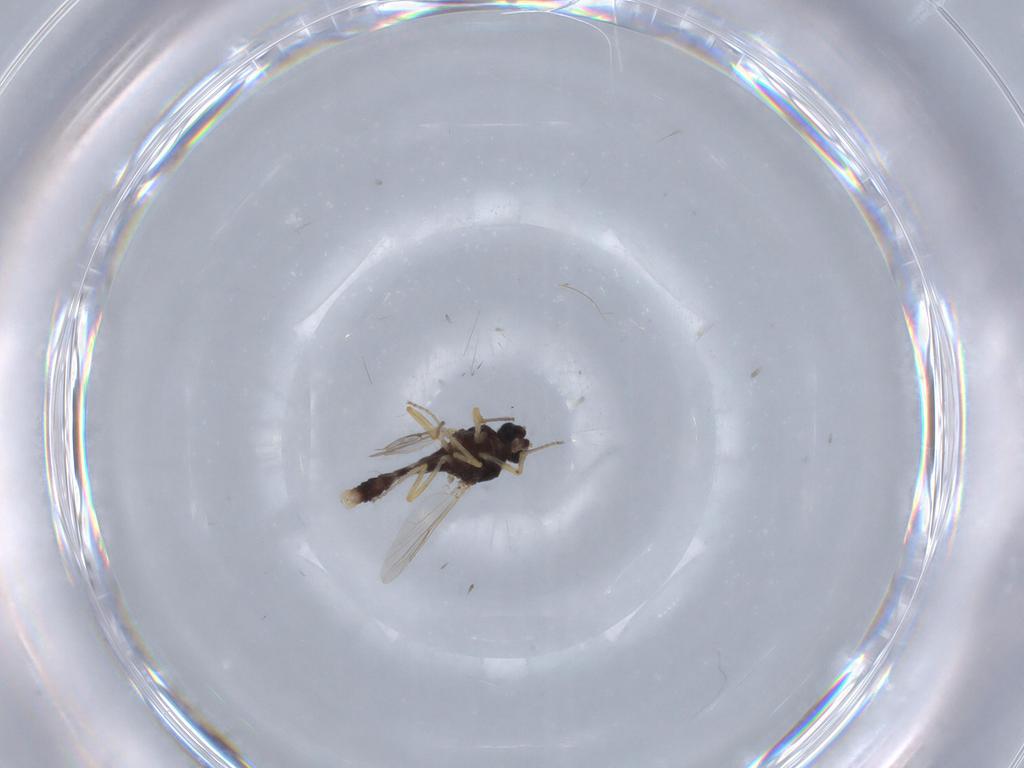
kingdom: Animalia
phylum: Arthropoda
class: Insecta
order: Diptera
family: Ceratopogonidae
